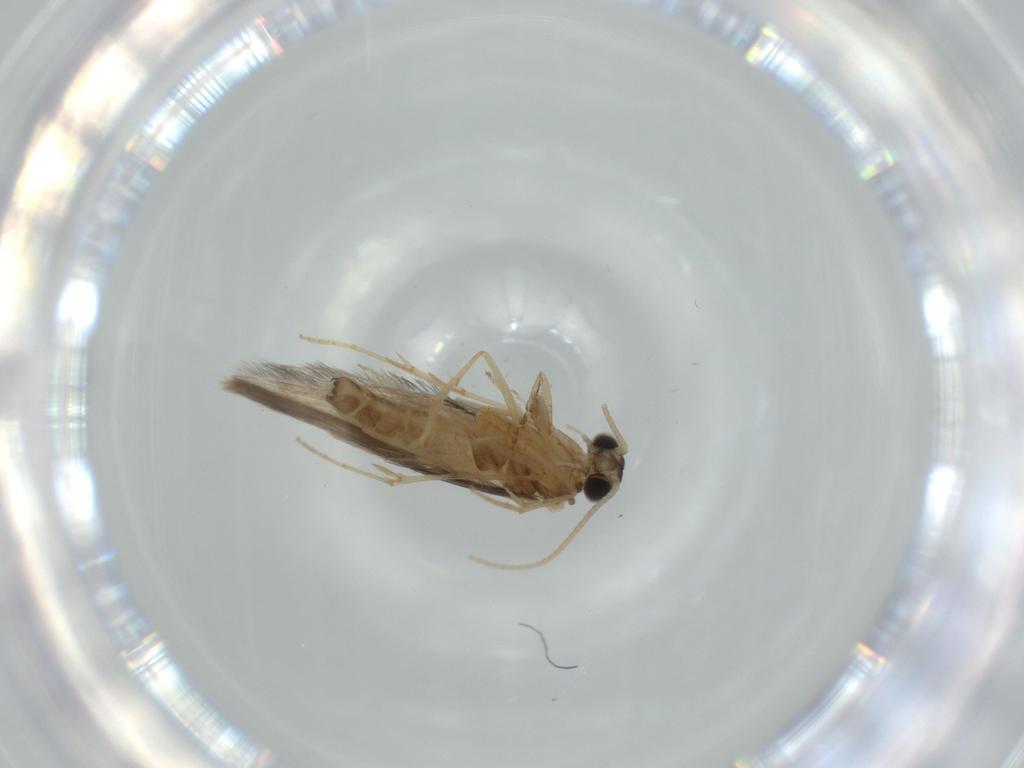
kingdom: Animalia
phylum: Arthropoda
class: Insecta
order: Trichoptera
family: Hydroptilidae
